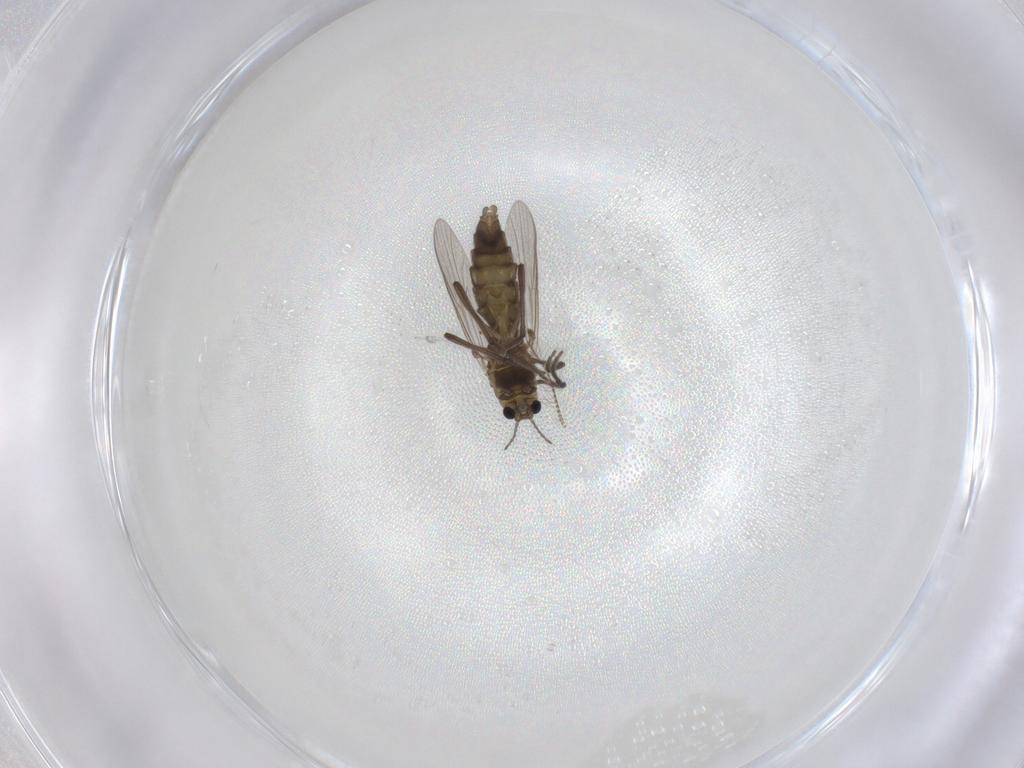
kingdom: Animalia
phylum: Arthropoda
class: Insecta
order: Diptera
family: Chironomidae
